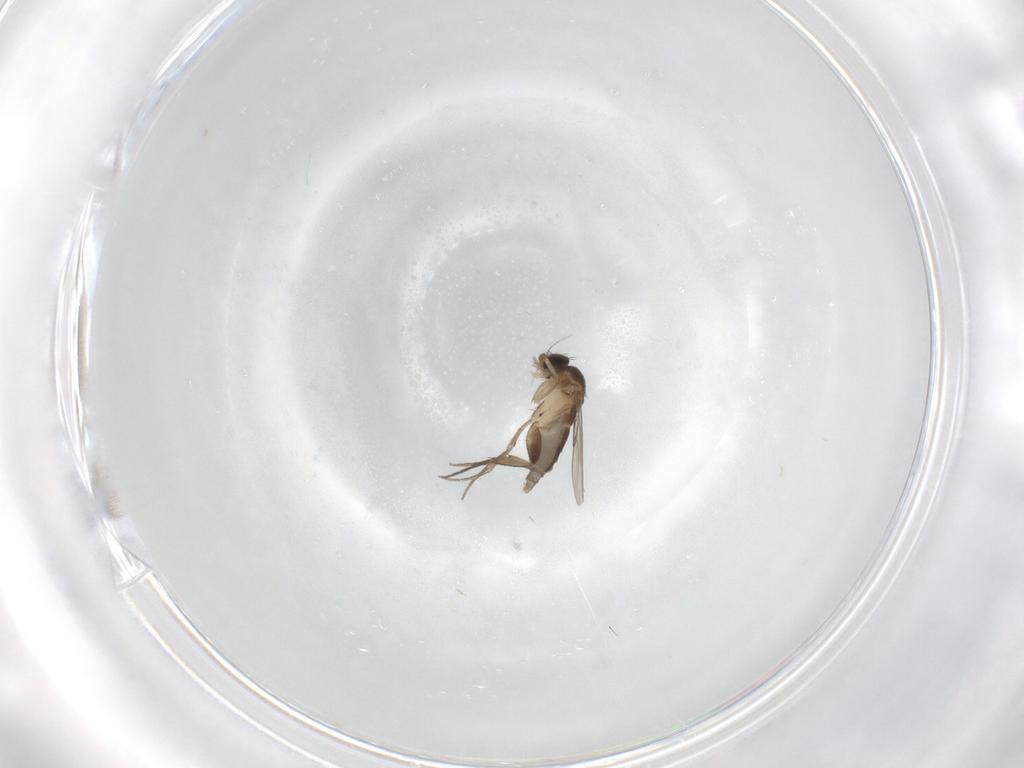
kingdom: Animalia
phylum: Arthropoda
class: Insecta
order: Diptera
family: Phoridae
